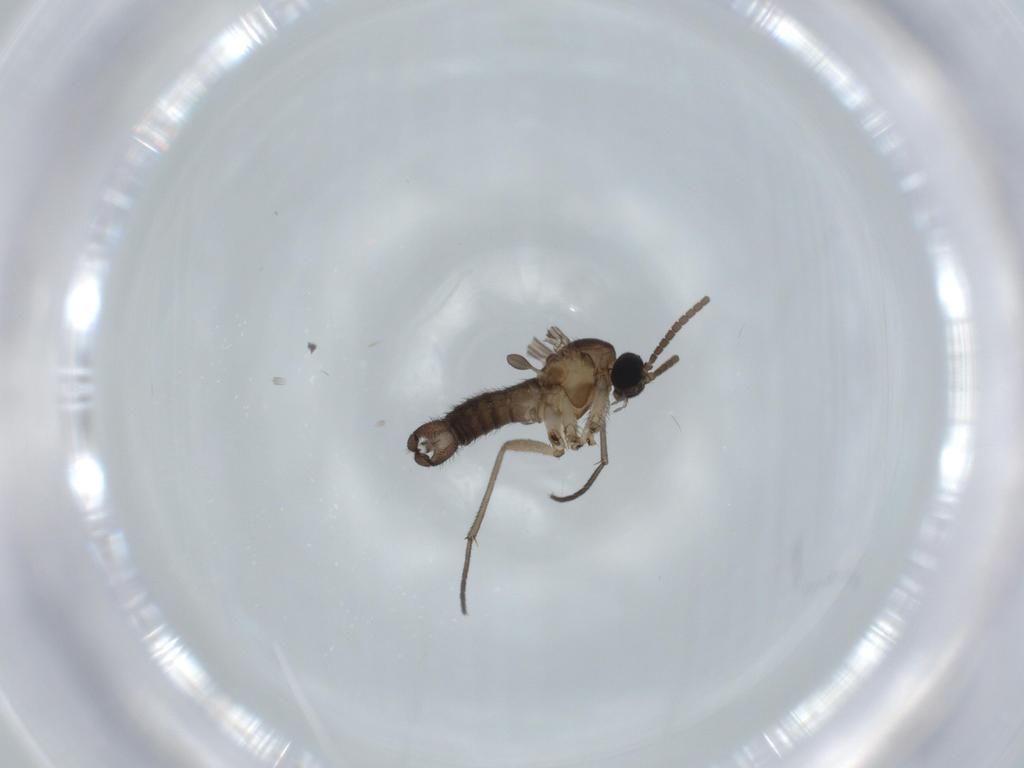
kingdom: Animalia
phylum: Arthropoda
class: Insecta
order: Diptera
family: Sciaridae
